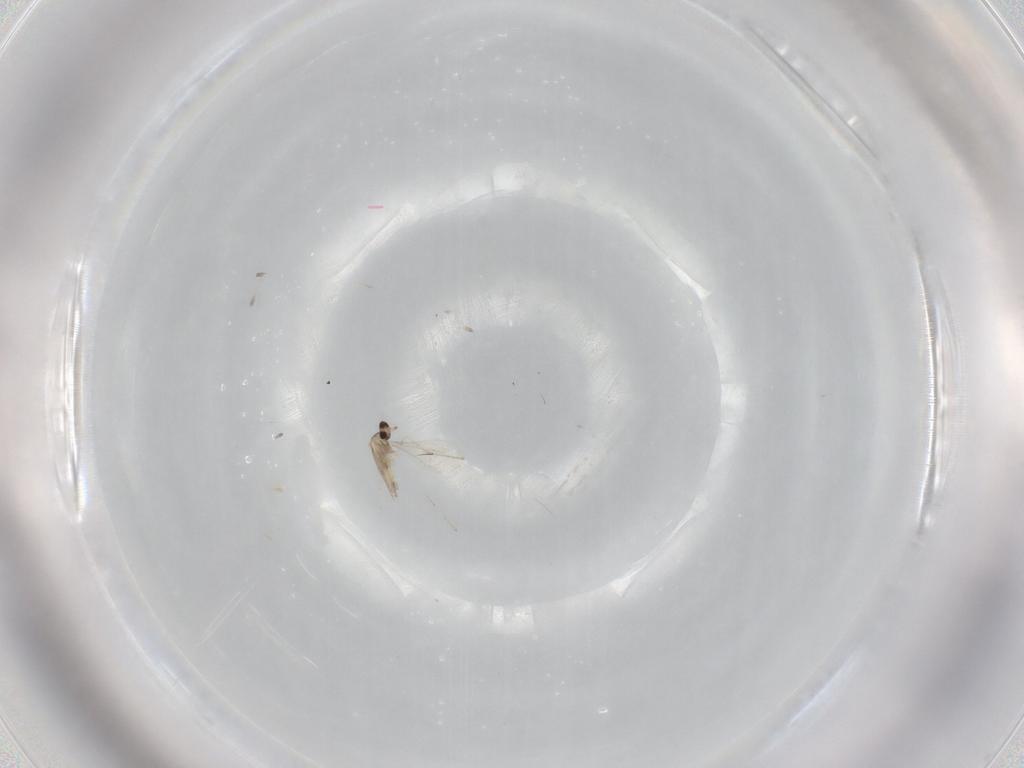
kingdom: Animalia
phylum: Arthropoda
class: Insecta
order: Diptera
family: Cecidomyiidae
